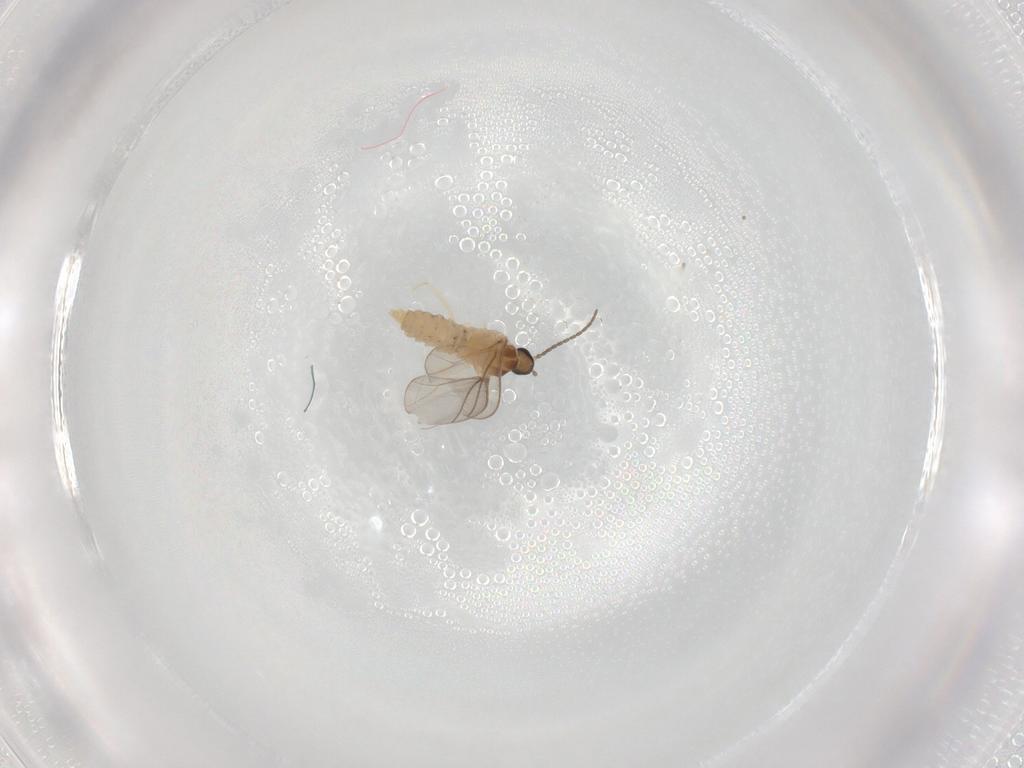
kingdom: Animalia
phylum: Arthropoda
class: Insecta
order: Diptera
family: Cecidomyiidae
